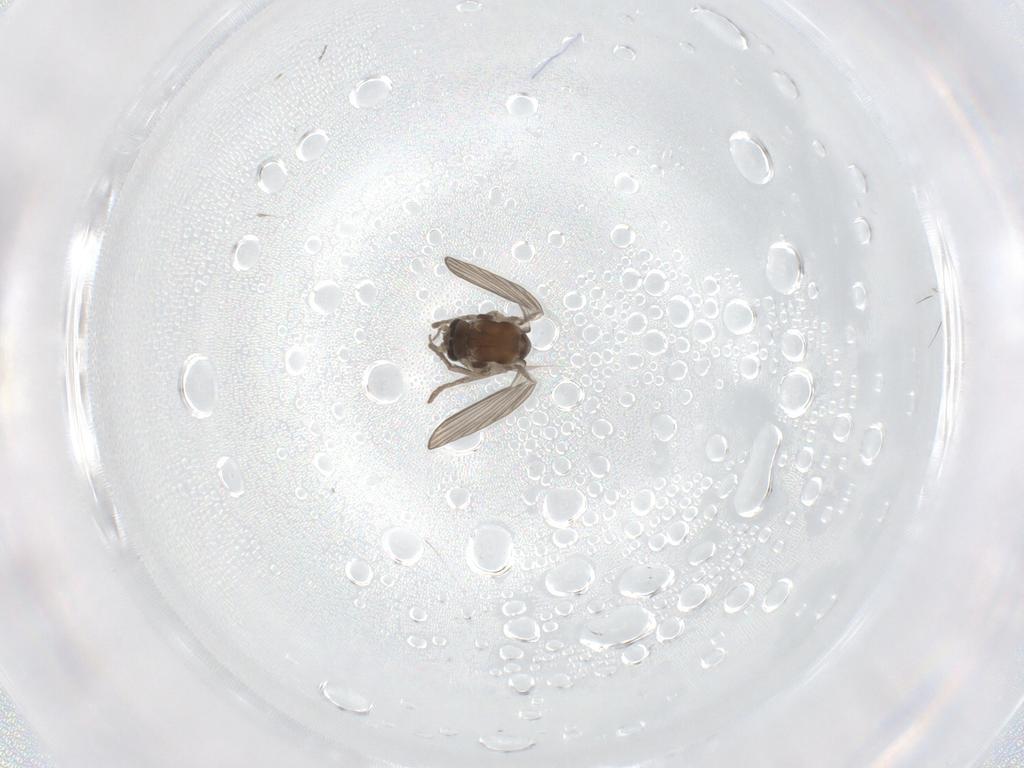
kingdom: Animalia
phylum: Arthropoda
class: Insecta
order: Diptera
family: Psychodidae
